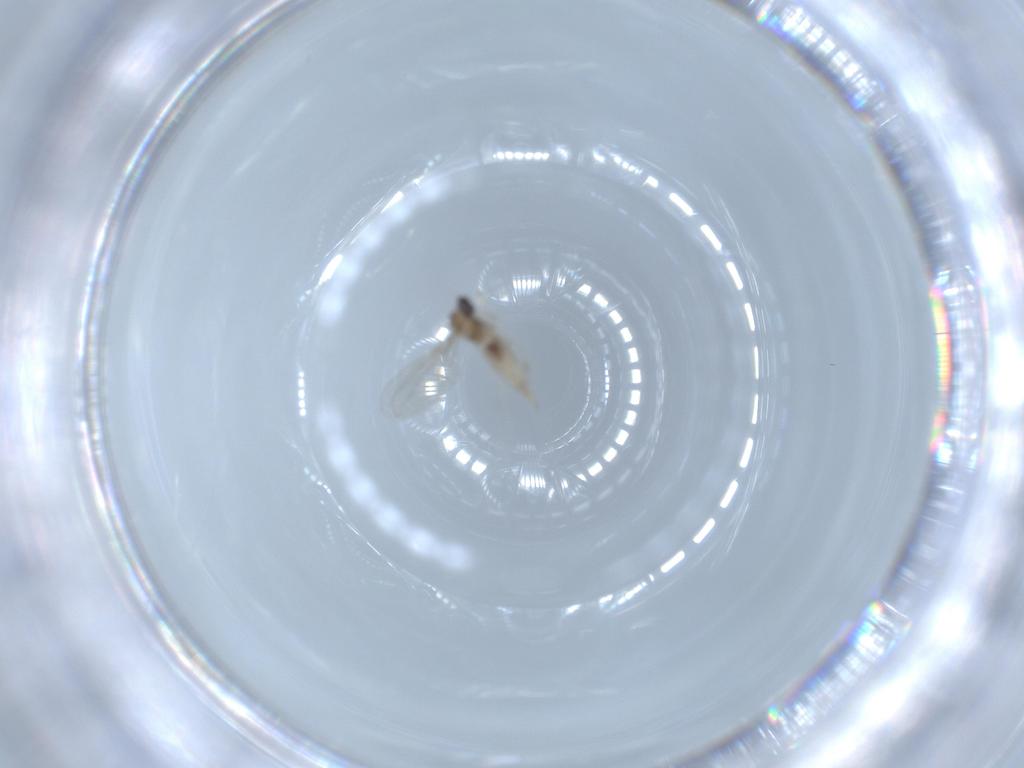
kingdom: Animalia
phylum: Arthropoda
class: Insecta
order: Diptera
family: Cecidomyiidae
